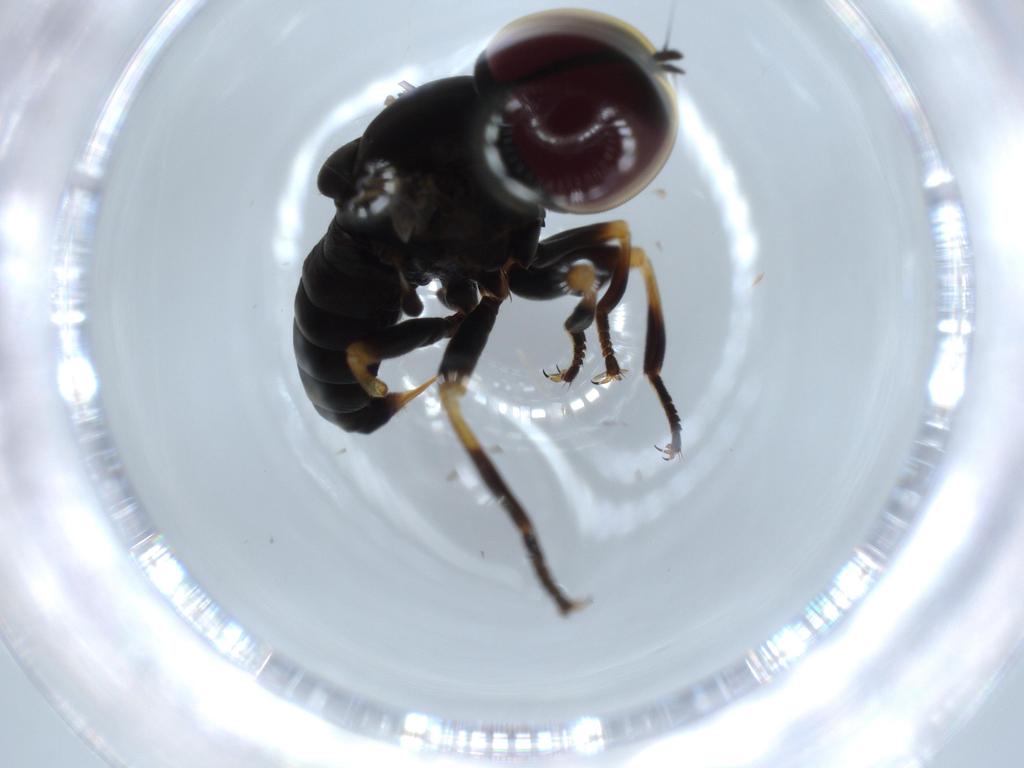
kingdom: Animalia
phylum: Arthropoda
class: Insecta
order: Diptera
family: Pipunculidae
